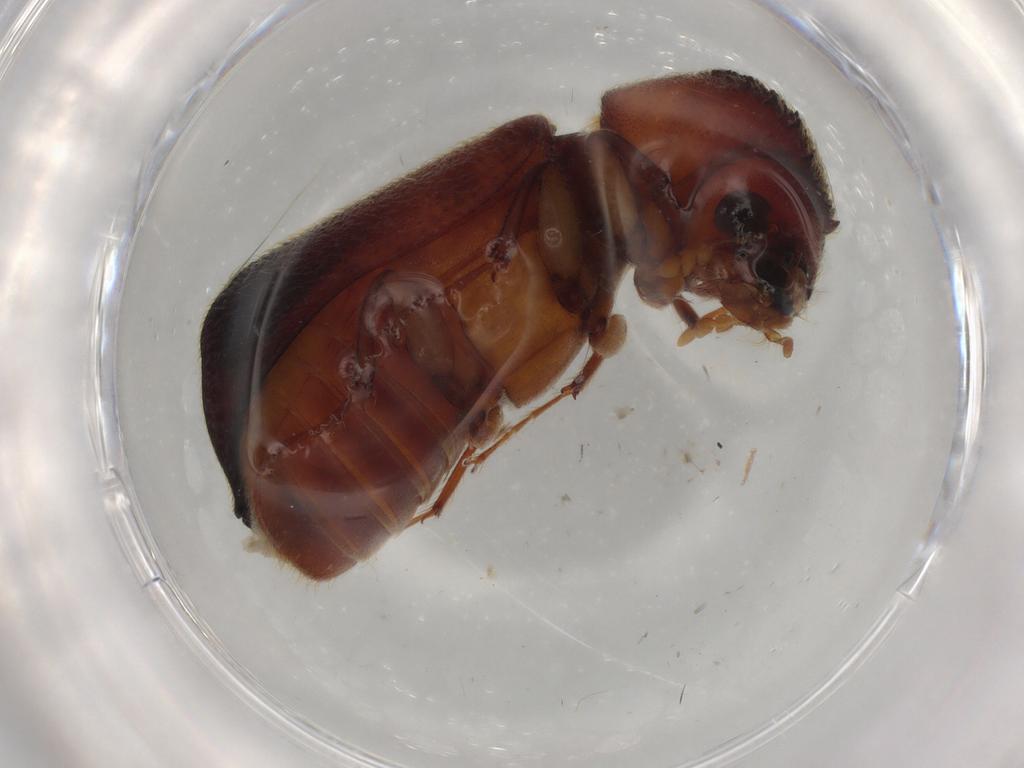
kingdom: Animalia
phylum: Arthropoda
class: Insecta
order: Coleoptera
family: Bostrichidae
